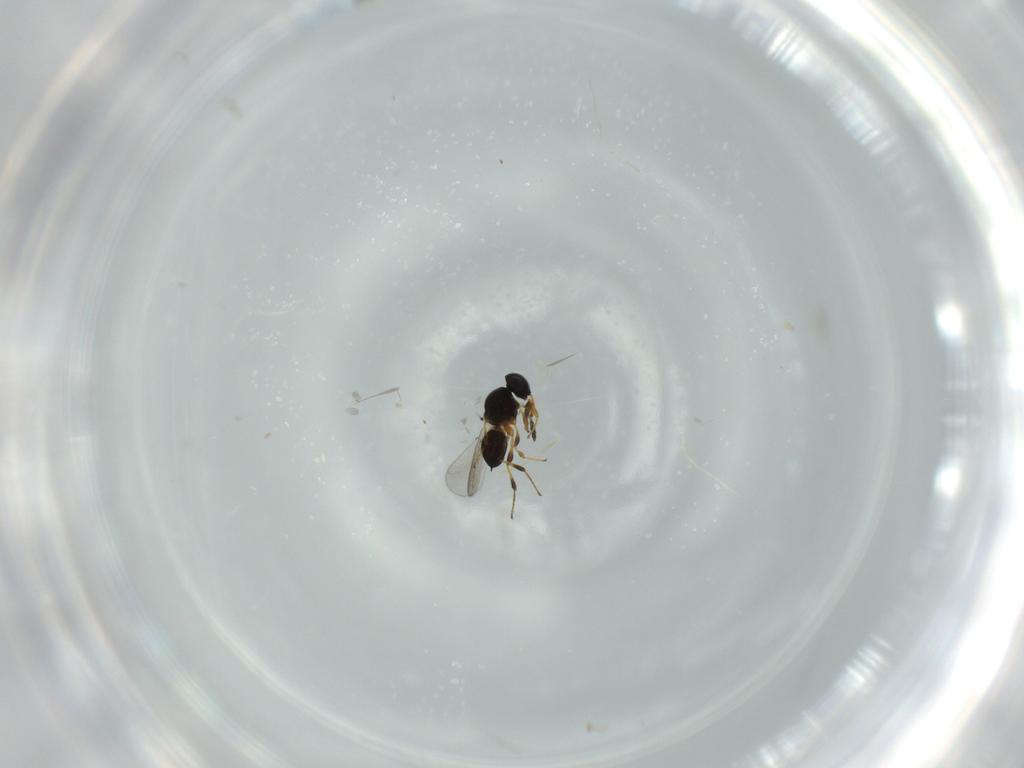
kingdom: Animalia
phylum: Arthropoda
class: Insecta
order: Hymenoptera
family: Platygastridae
